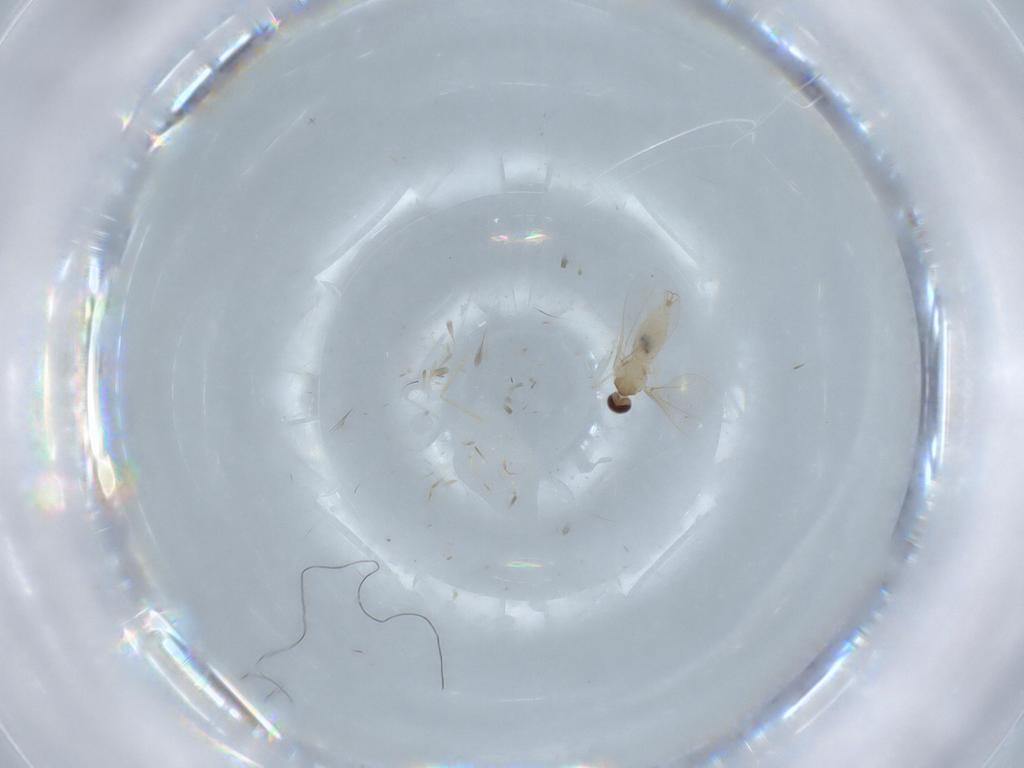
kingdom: Animalia
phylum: Arthropoda
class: Insecta
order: Diptera
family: Cecidomyiidae
